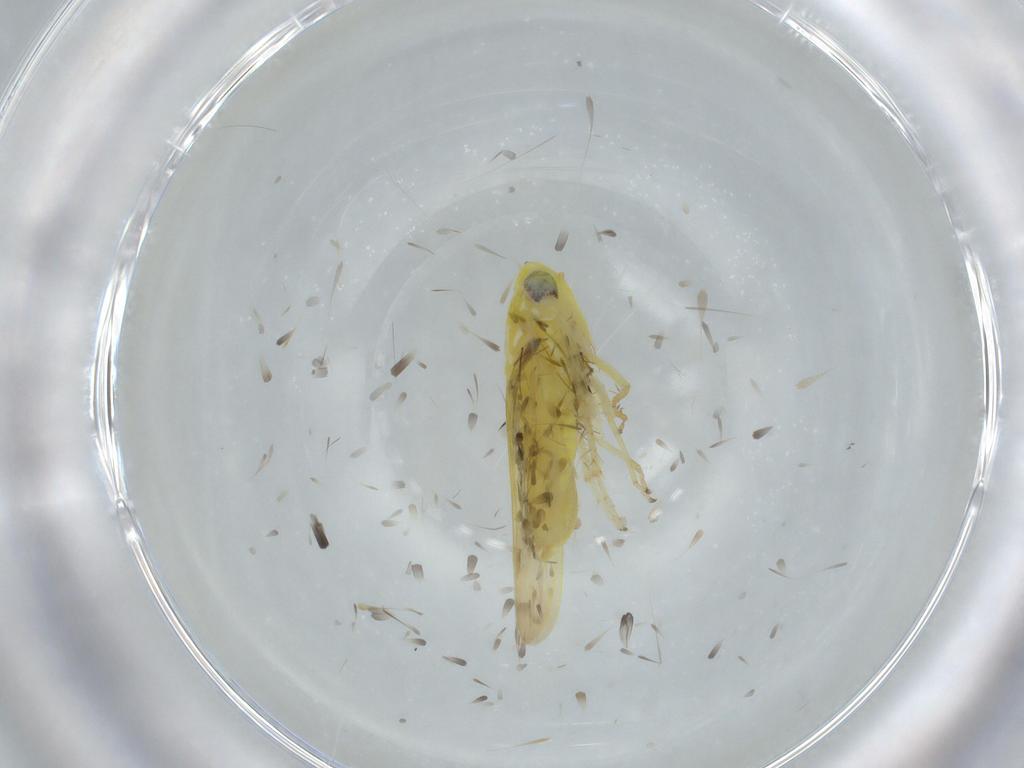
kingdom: Animalia
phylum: Arthropoda
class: Insecta
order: Hemiptera
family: Cicadellidae
